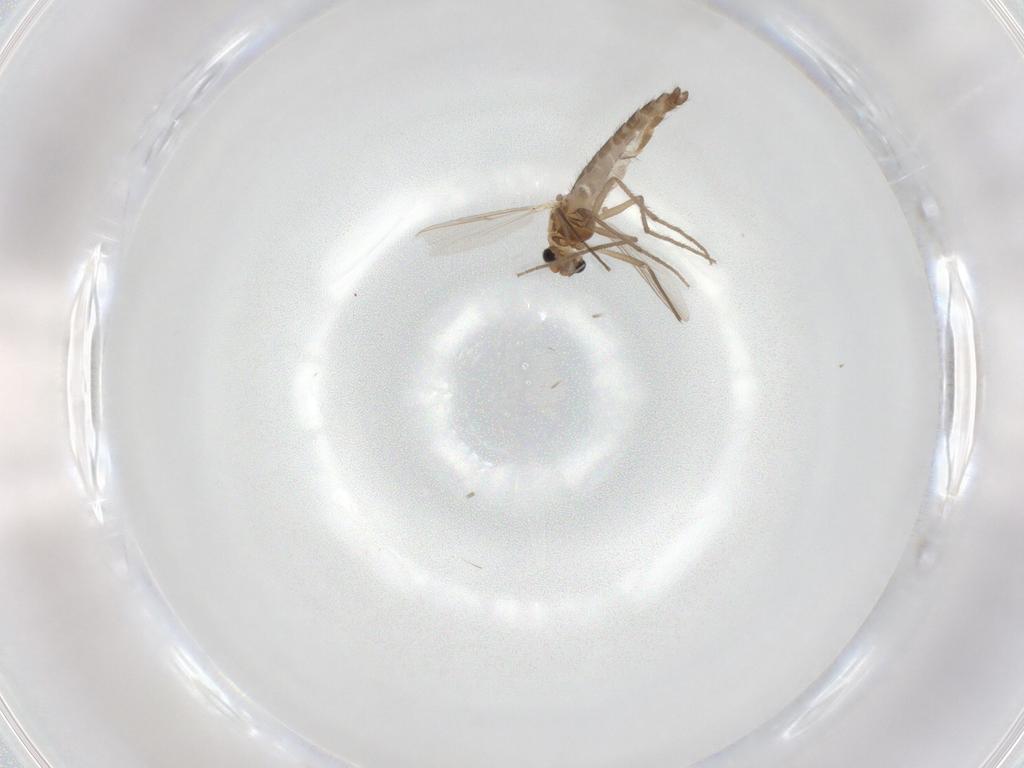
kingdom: Animalia
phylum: Arthropoda
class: Insecta
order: Diptera
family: Chironomidae
